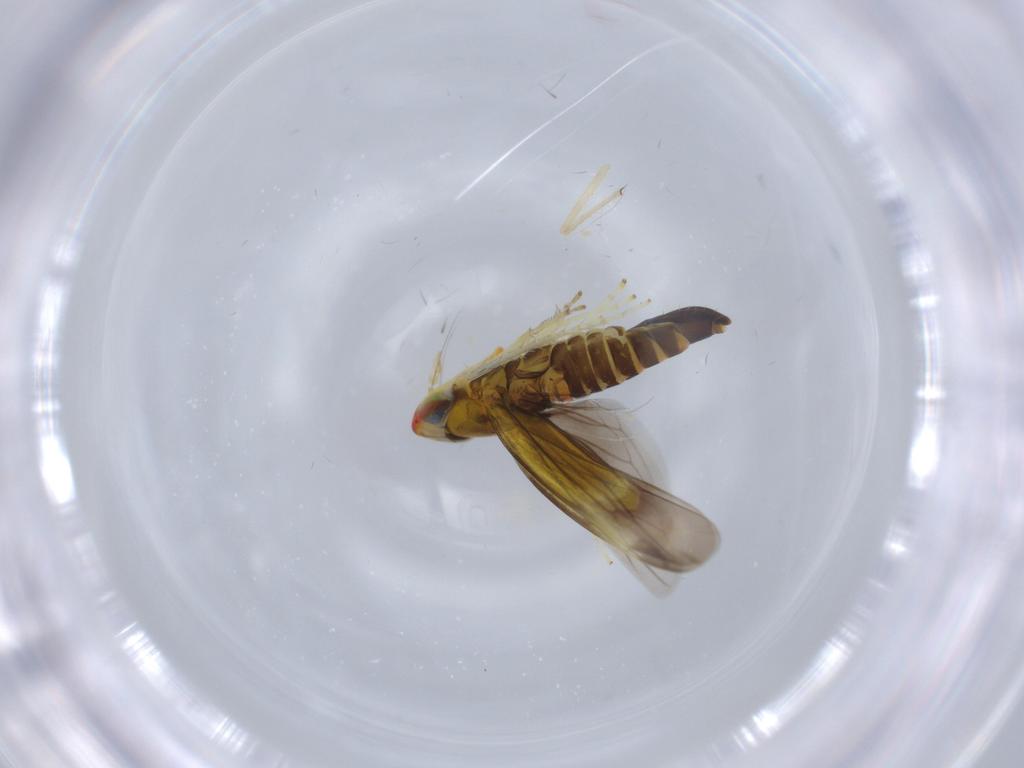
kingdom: Animalia
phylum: Arthropoda
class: Insecta
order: Hemiptera
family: Cicadellidae
